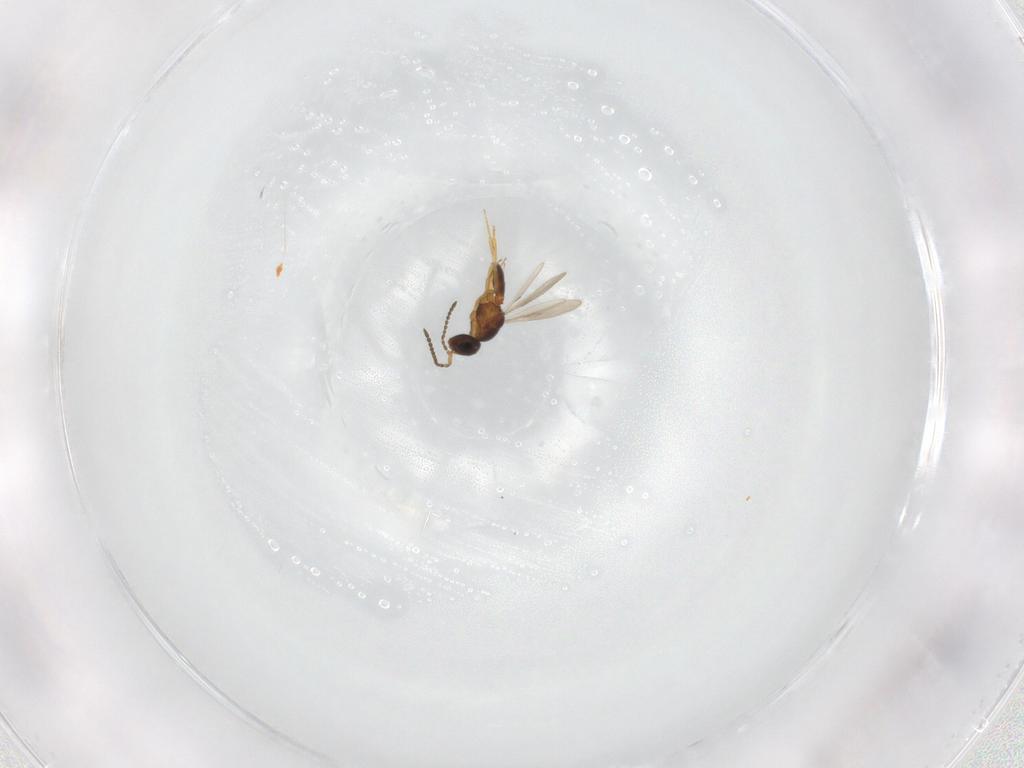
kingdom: Animalia
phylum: Arthropoda
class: Insecta
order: Hymenoptera
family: Scelionidae
